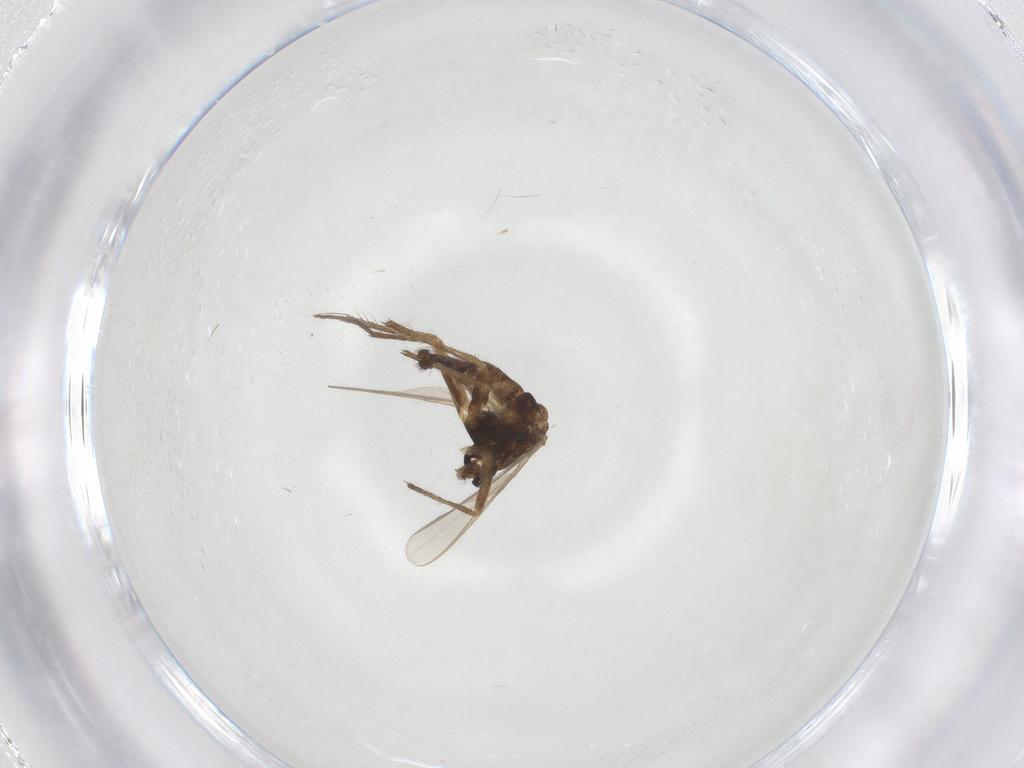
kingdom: Animalia
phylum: Arthropoda
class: Insecta
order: Diptera
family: Chironomidae
